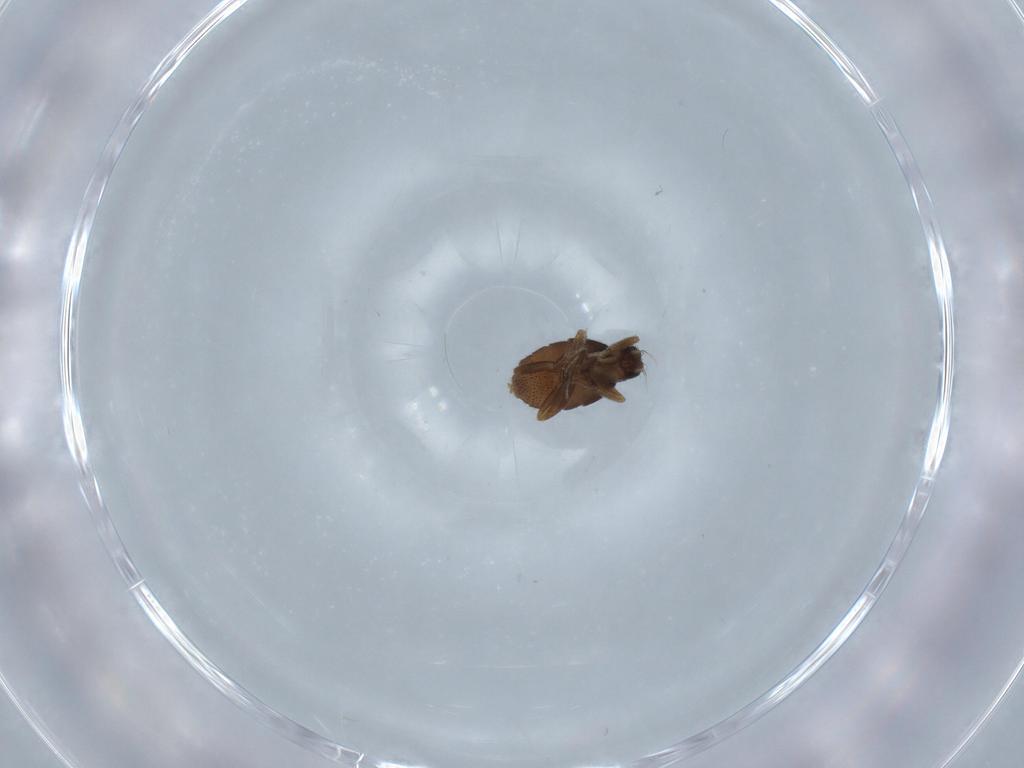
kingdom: Animalia
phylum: Arthropoda
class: Insecta
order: Diptera
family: Phoridae
